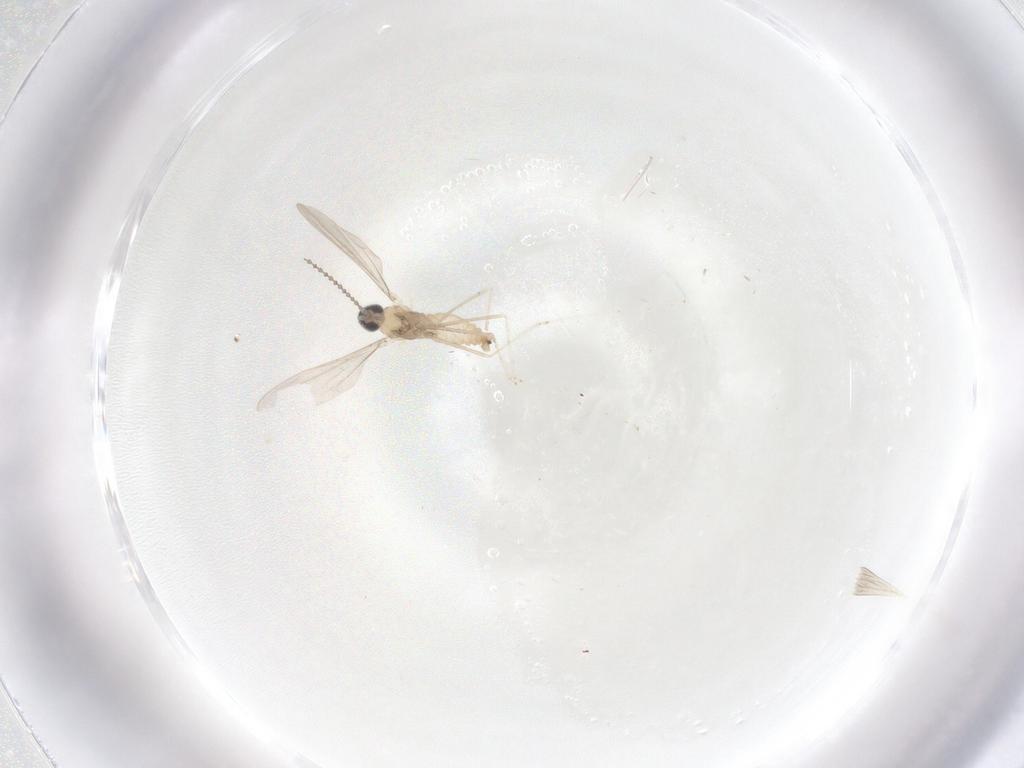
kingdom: Animalia
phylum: Arthropoda
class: Insecta
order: Diptera
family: Cecidomyiidae
